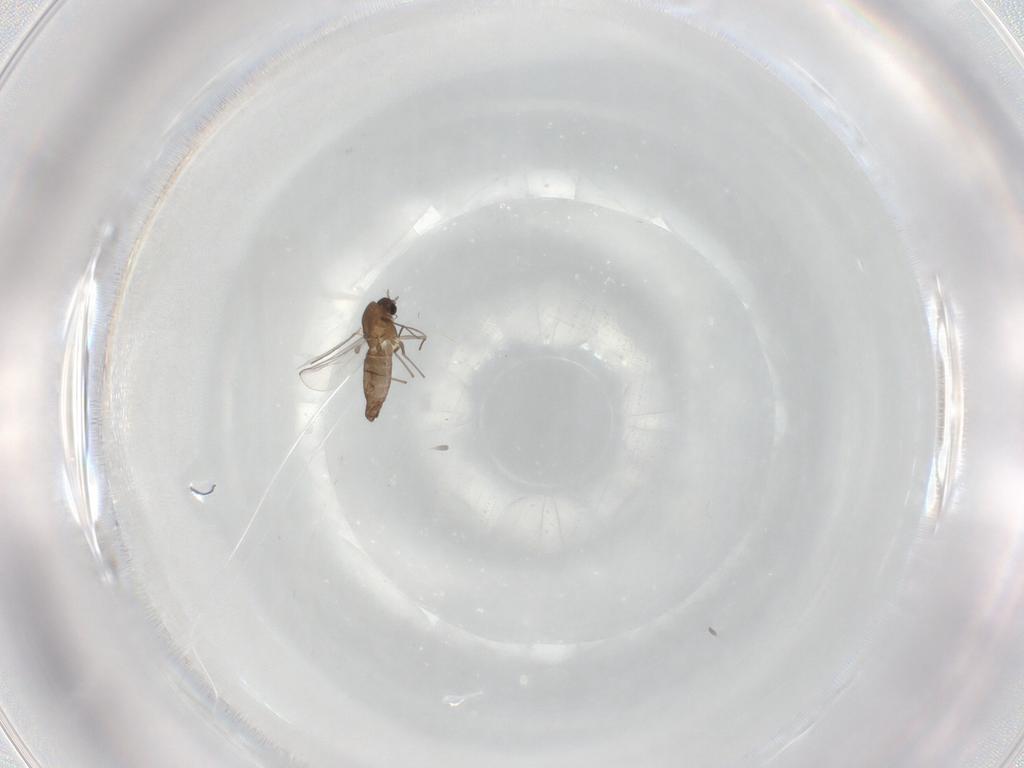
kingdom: Animalia
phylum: Arthropoda
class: Insecta
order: Diptera
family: Chironomidae
